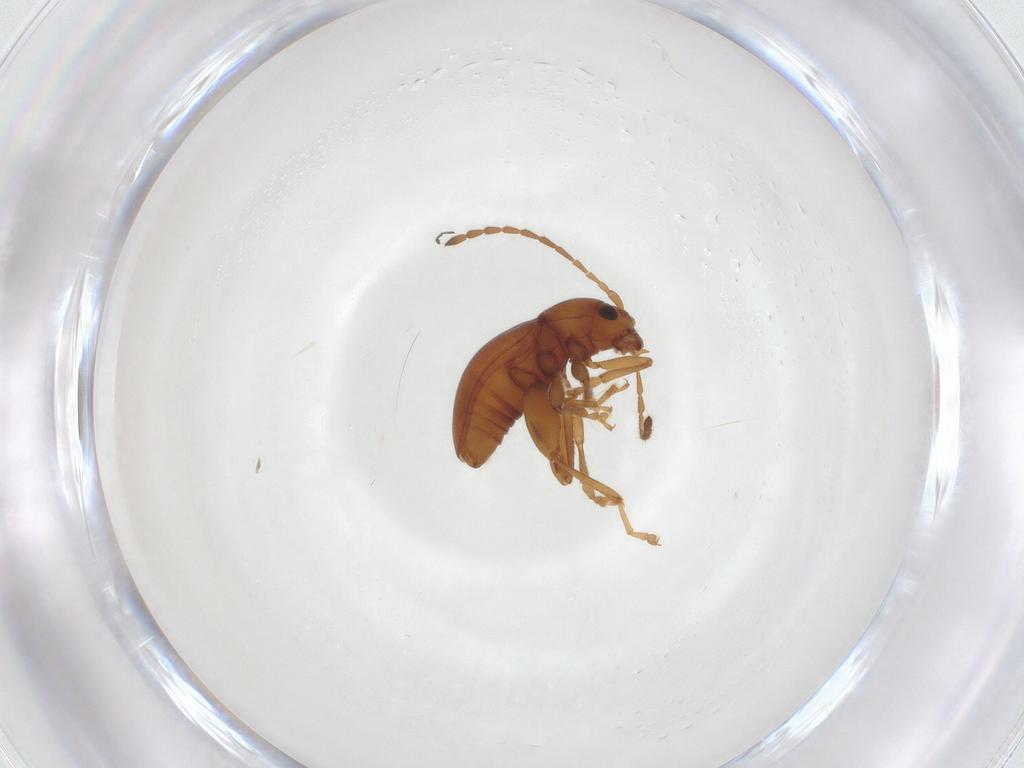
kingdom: Animalia
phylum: Arthropoda
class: Insecta
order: Coleoptera
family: Chrysomelidae
